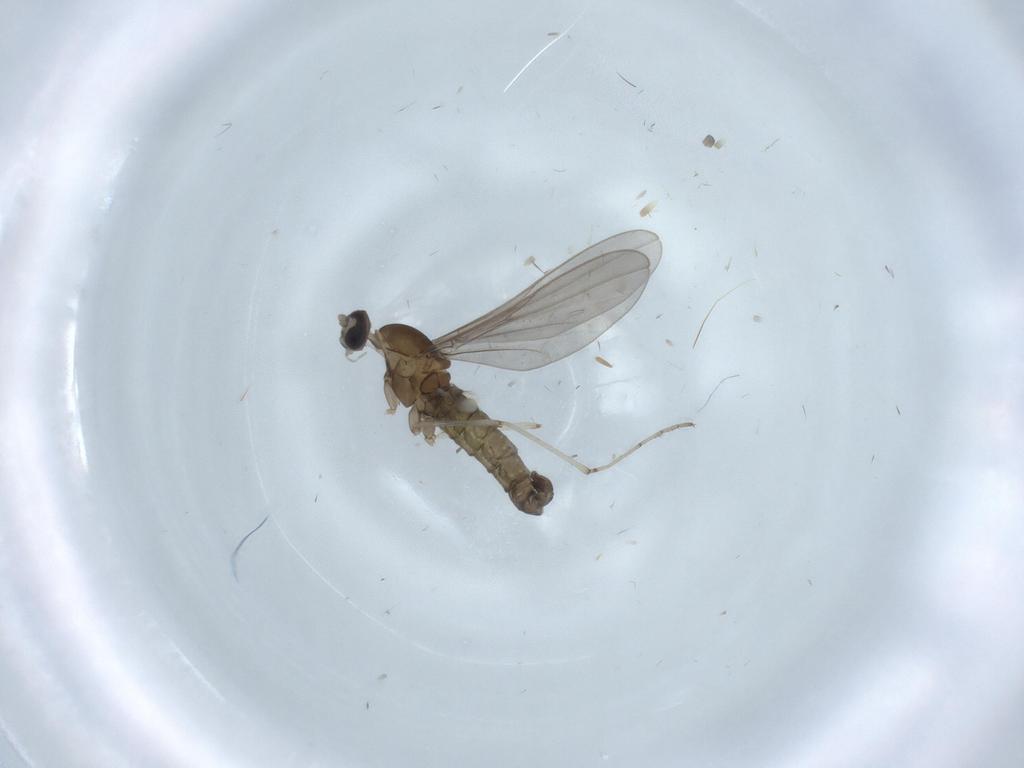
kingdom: Animalia
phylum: Arthropoda
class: Insecta
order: Diptera
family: Cecidomyiidae
